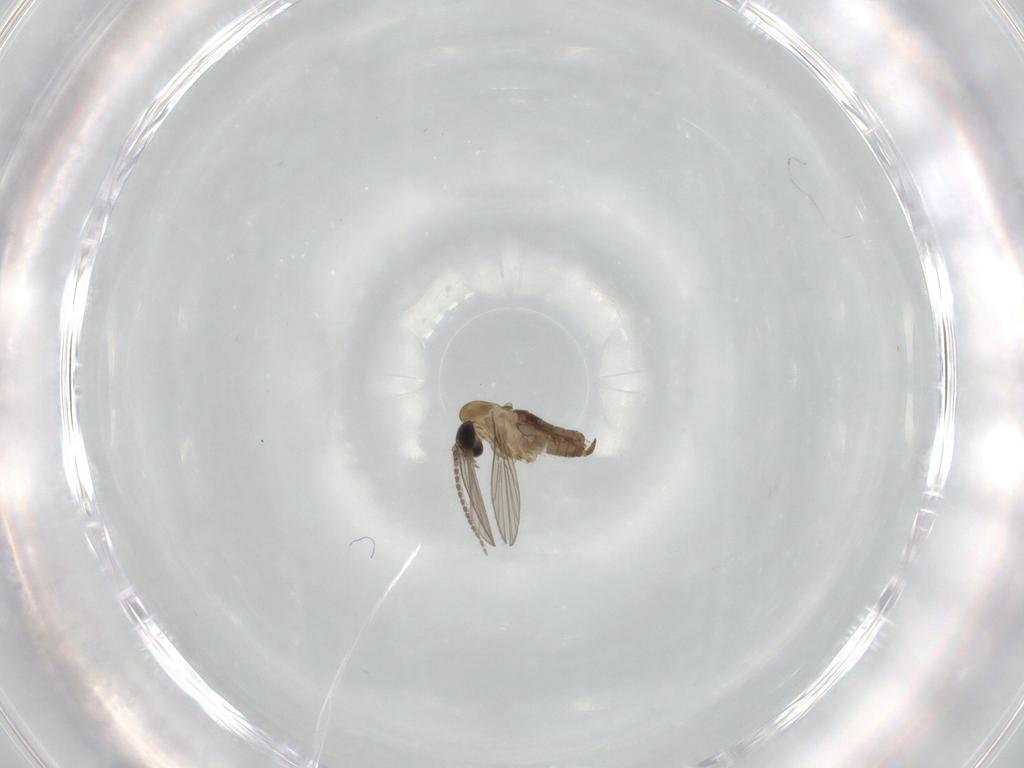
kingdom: Animalia
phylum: Arthropoda
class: Insecta
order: Diptera
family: Psychodidae
